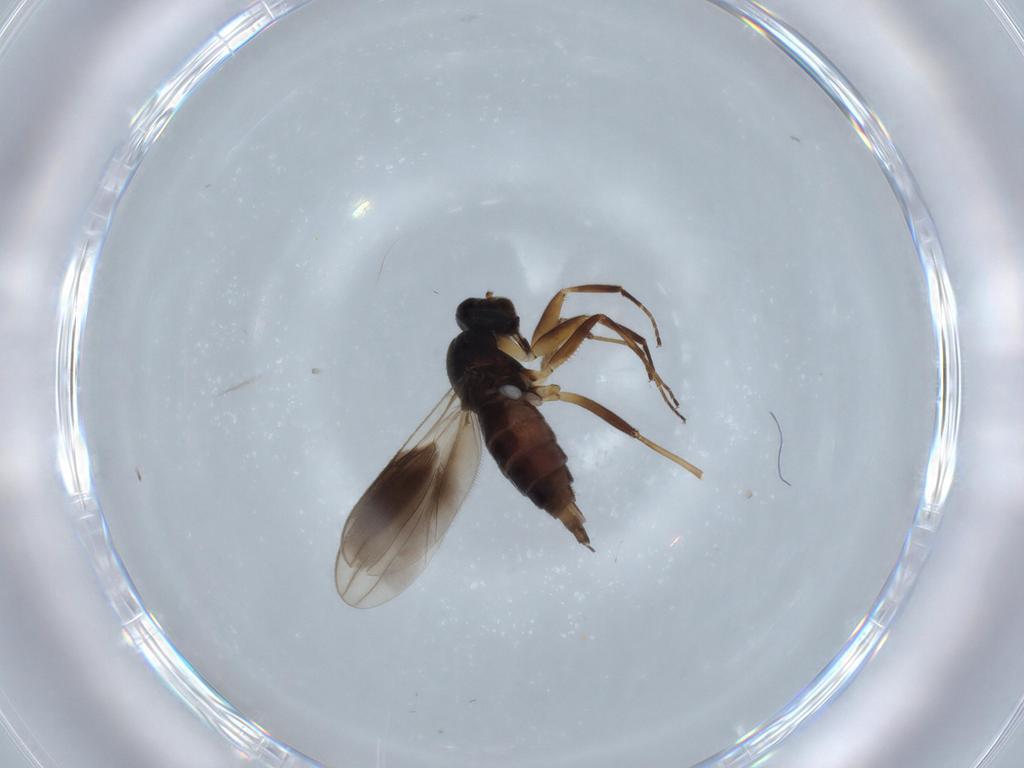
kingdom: Animalia
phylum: Arthropoda
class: Insecta
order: Diptera
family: Hybotidae
